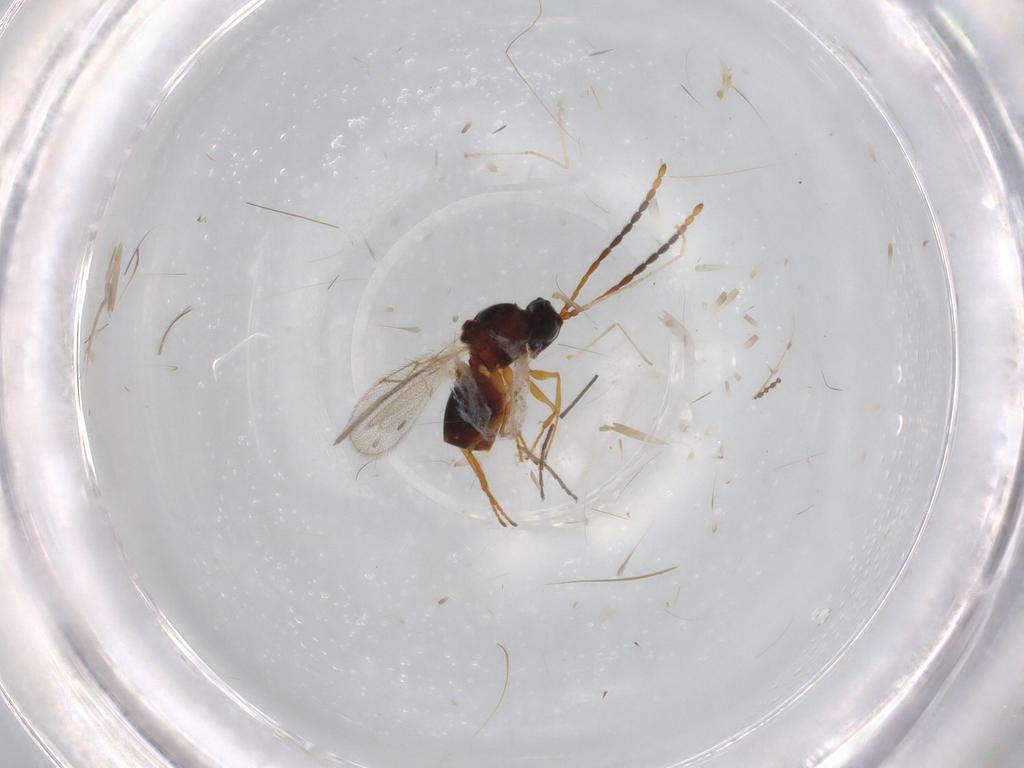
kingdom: Animalia
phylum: Arthropoda
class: Insecta
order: Hymenoptera
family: Figitidae
